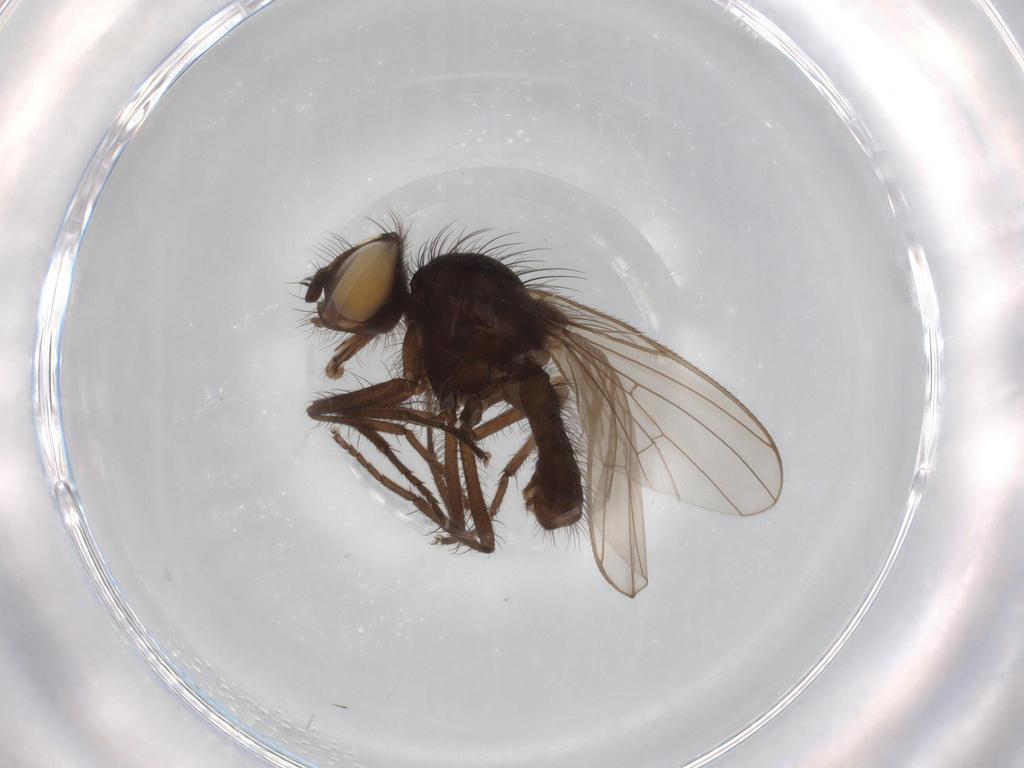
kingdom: Animalia
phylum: Arthropoda
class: Insecta
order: Diptera
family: Anthomyiidae
